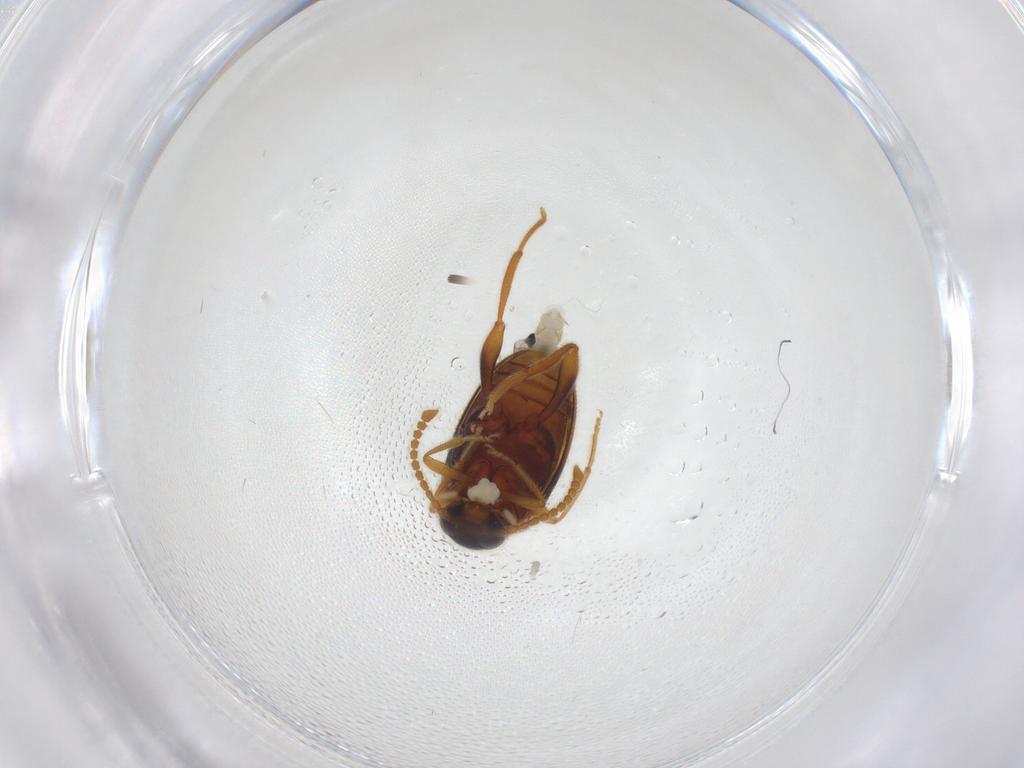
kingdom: Animalia
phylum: Arthropoda
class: Insecta
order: Coleoptera
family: Aderidae
